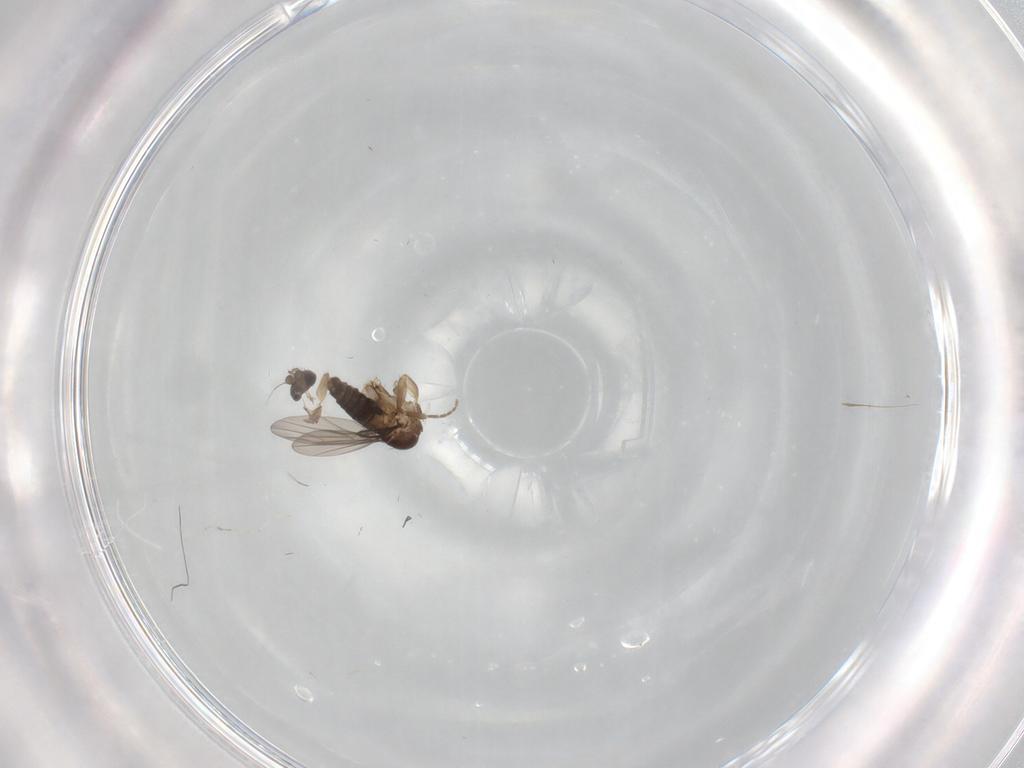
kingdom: Animalia
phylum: Arthropoda
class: Insecta
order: Diptera
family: Phoridae
